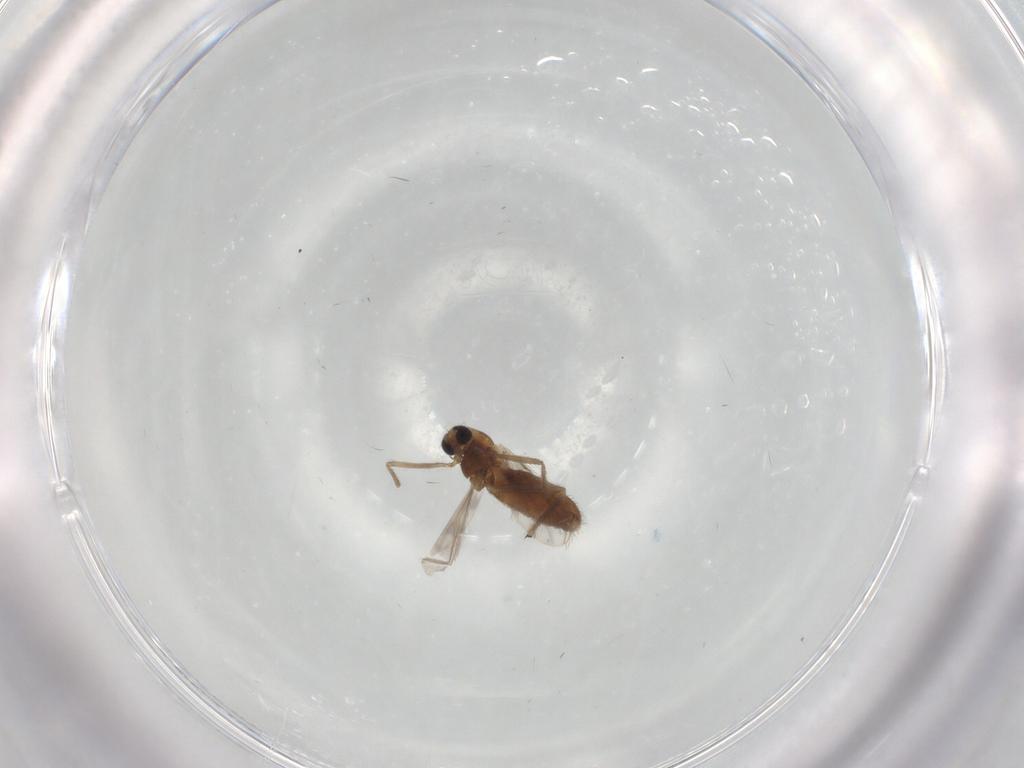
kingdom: Animalia
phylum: Arthropoda
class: Insecta
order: Diptera
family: Chironomidae
